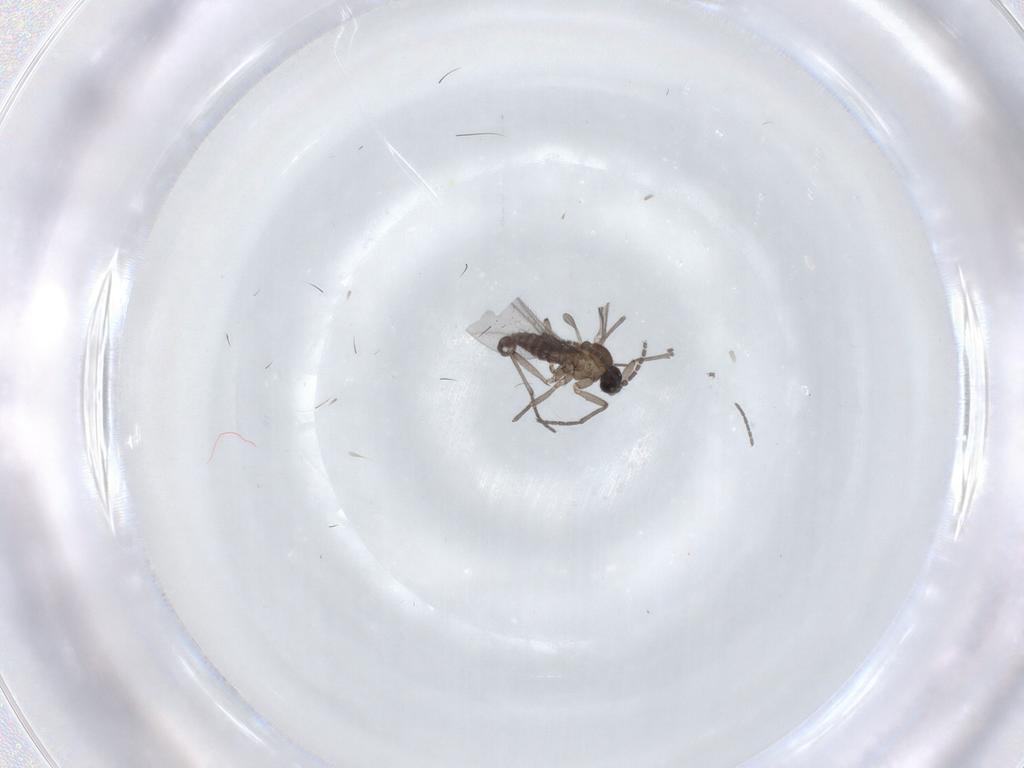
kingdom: Animalia
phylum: Arthropoda
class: Insecta
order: Diptera
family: Sciaridae
